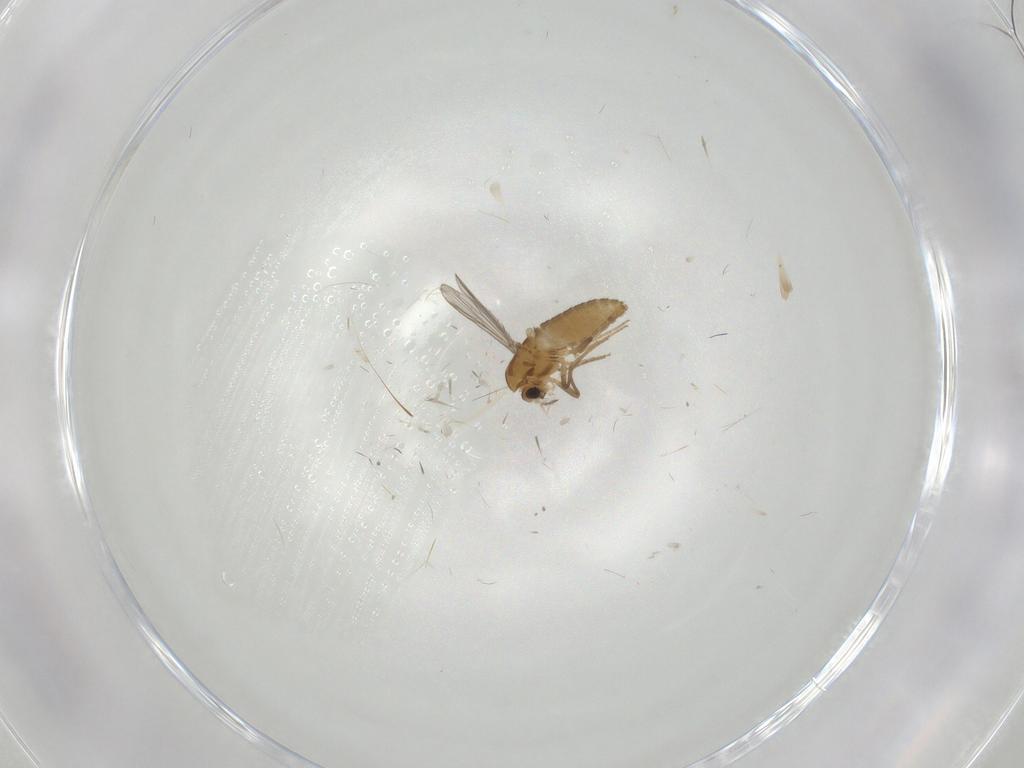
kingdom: Animalia
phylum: Arthropoda
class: Insecta
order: Diptera
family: Chironomidae
